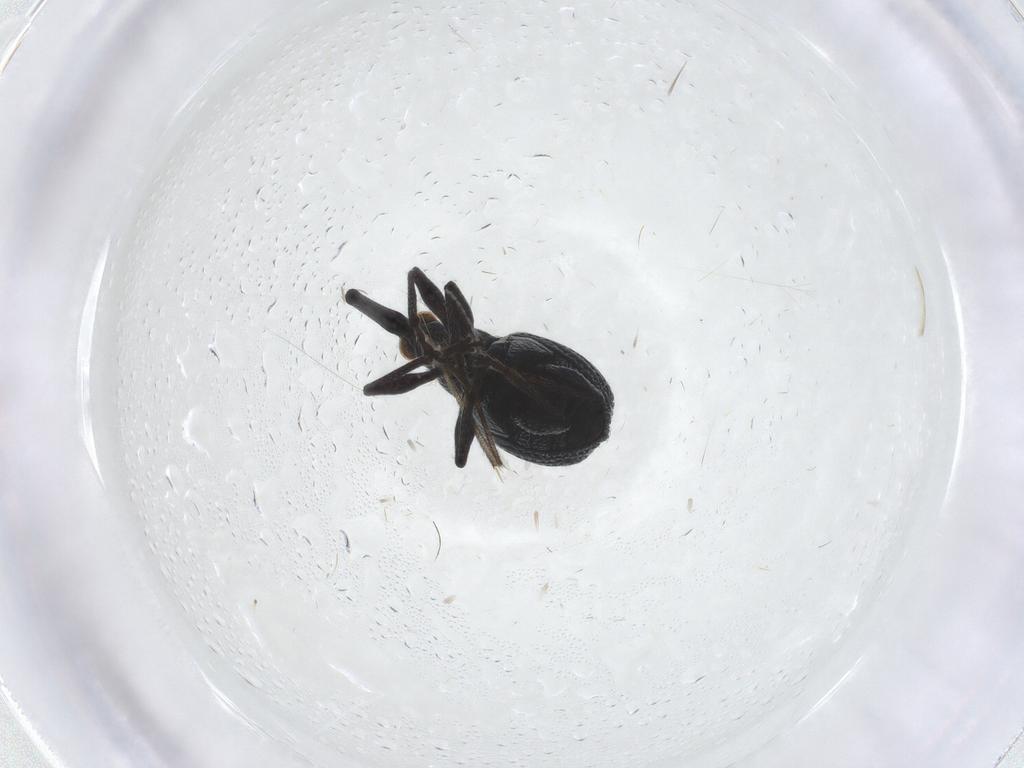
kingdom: Animalia
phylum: Arthropoda
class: Insecta
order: Coleoptera
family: Brentidae
